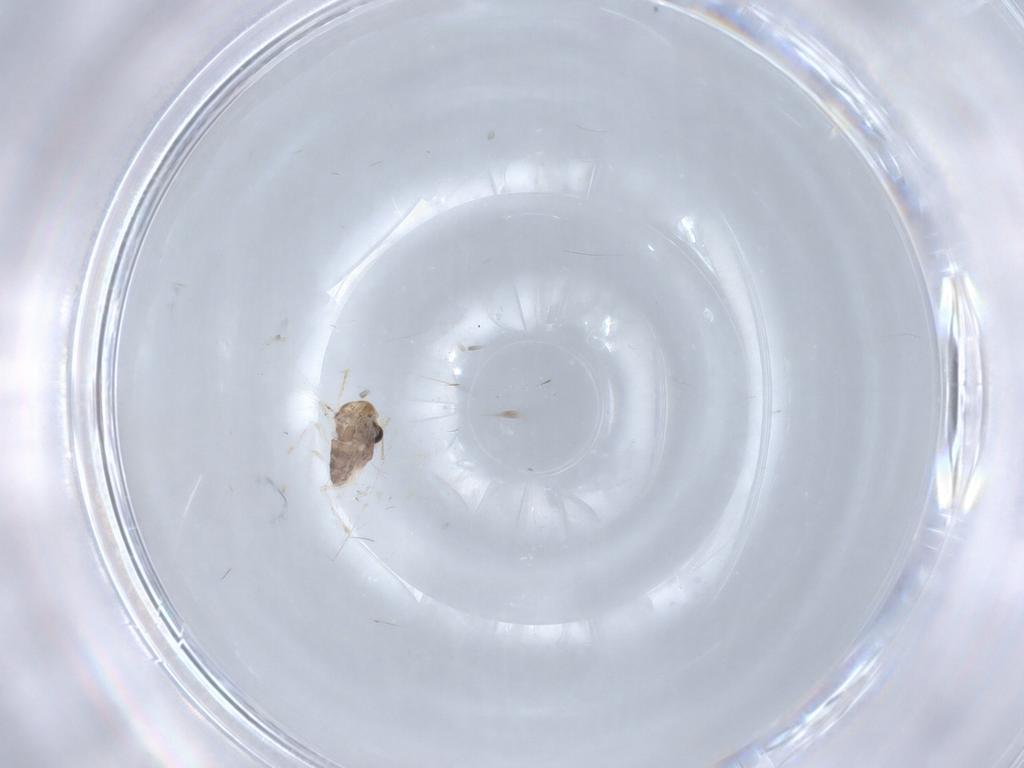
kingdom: Animalia
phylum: Arthropoda
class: Insecta
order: Diptera
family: Chironomidae
